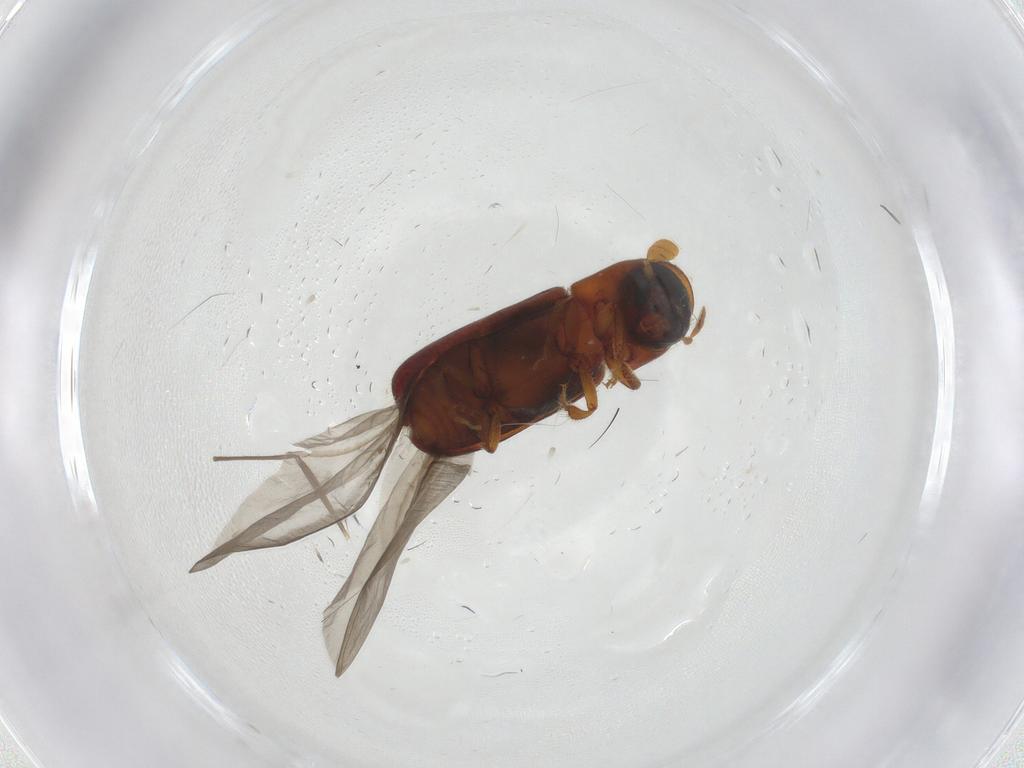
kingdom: Animalia
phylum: Arthropoda
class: Insecta
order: Coleoptera
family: Curculionidae
